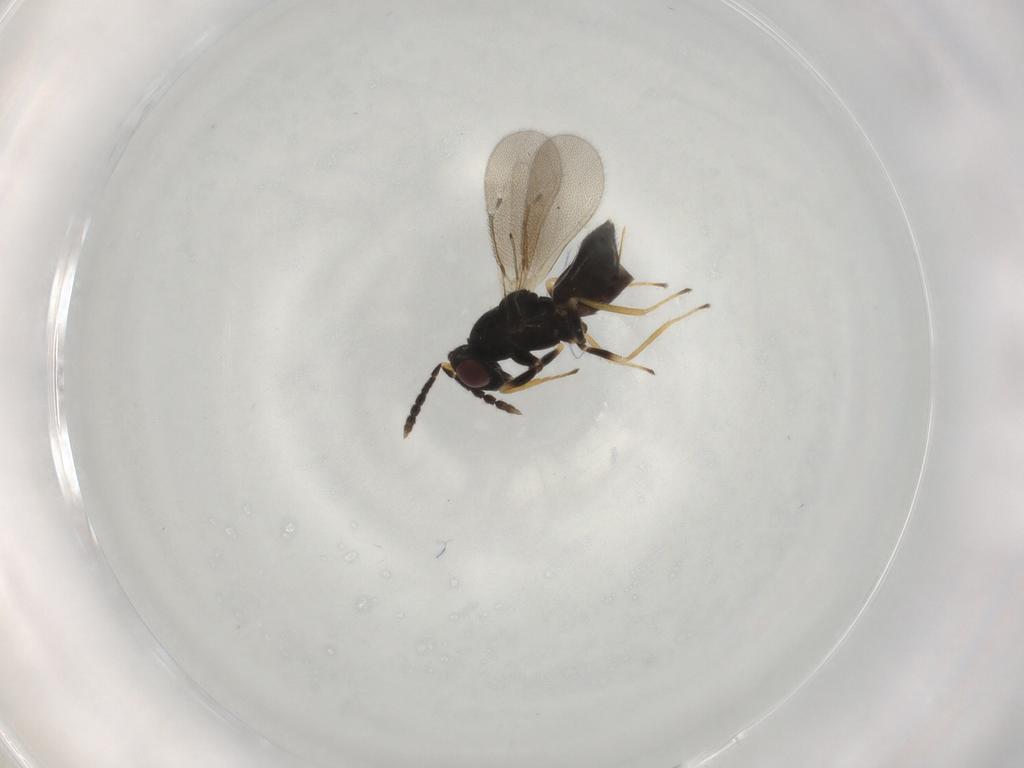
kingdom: Animalia
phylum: Arthropoda
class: Insecta
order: Hymenoptera
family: Eulophidae
